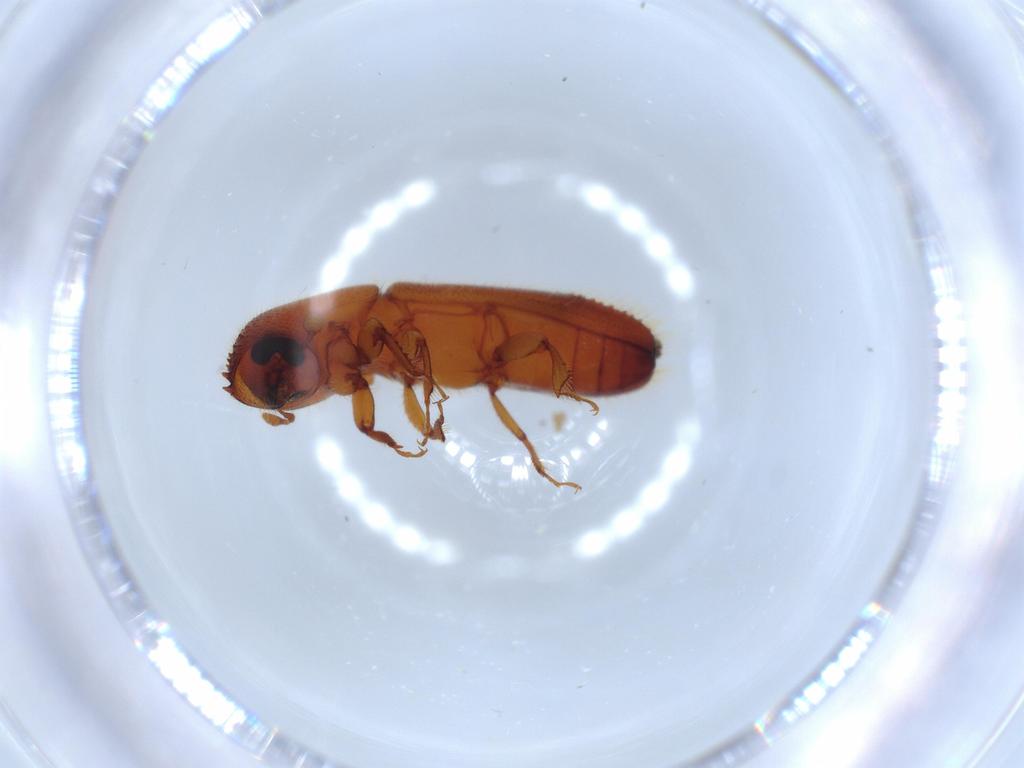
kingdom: Animalia
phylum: Arthropoda
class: Insecta
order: Coleoptera
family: Curculionidae
